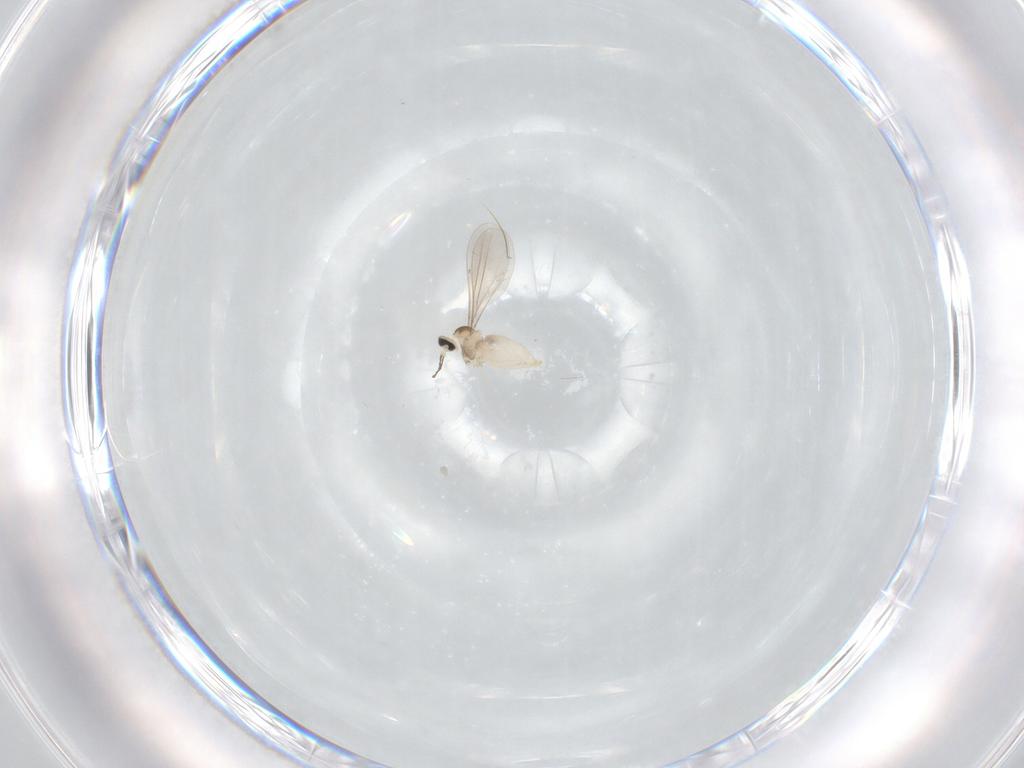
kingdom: Animalia
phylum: Arthropoda
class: Insecta
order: Diptera
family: Cecidomyiidae
